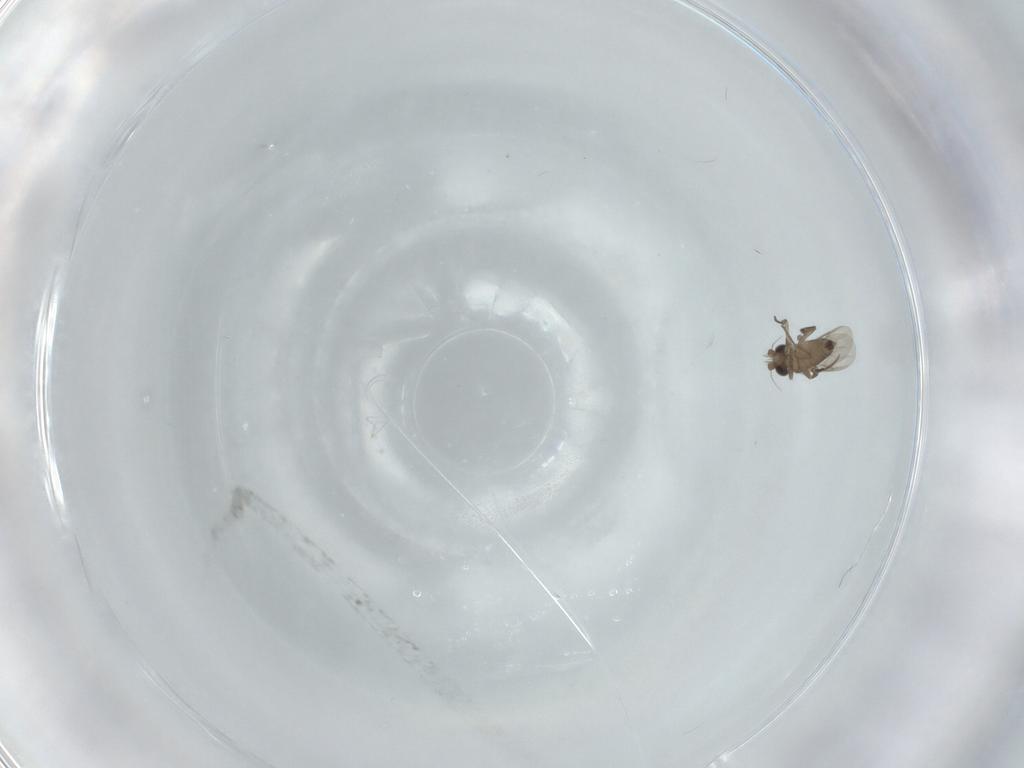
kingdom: Animalia
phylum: Arthropoda
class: Insecta
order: Diptera
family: Phoridae
